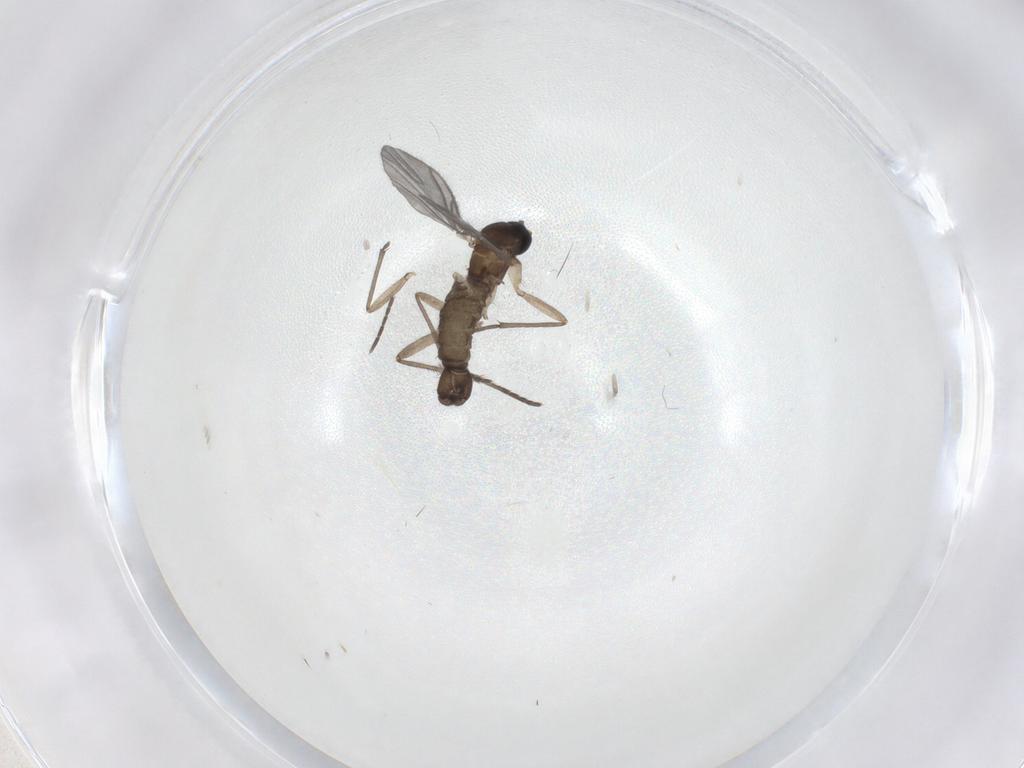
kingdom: Animalia
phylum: Arthropoda
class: Insecta
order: Diptera
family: Sciaridae
